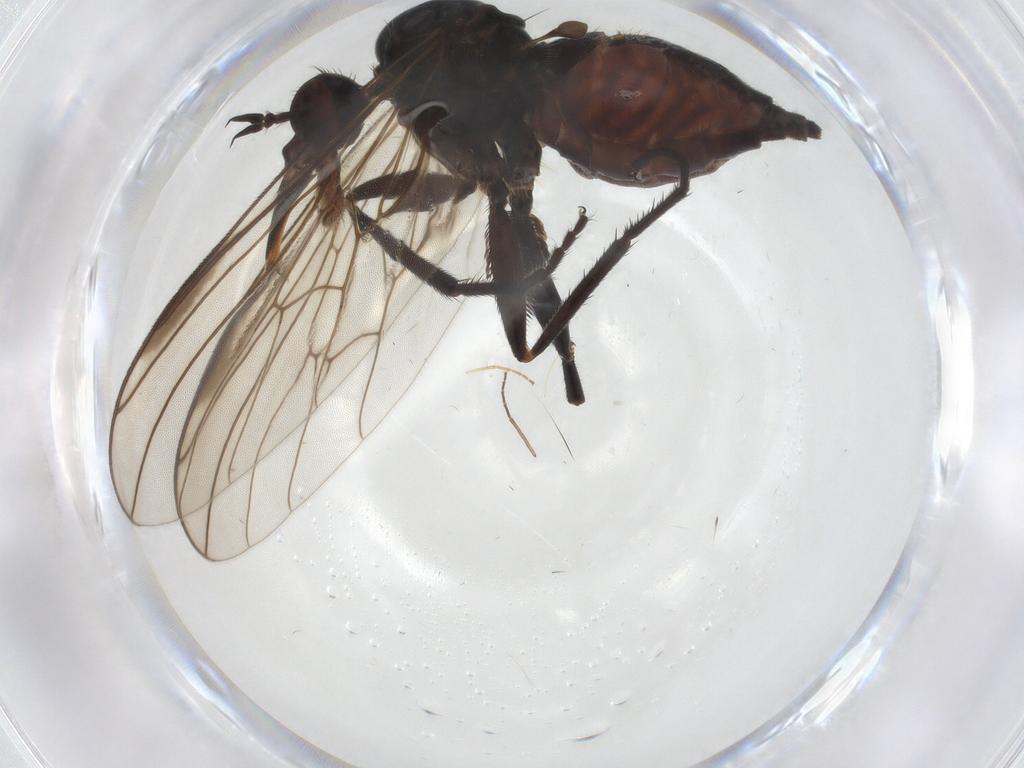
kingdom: Animalia
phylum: Arthropoda
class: Insecta
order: Diptera
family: Empididae
